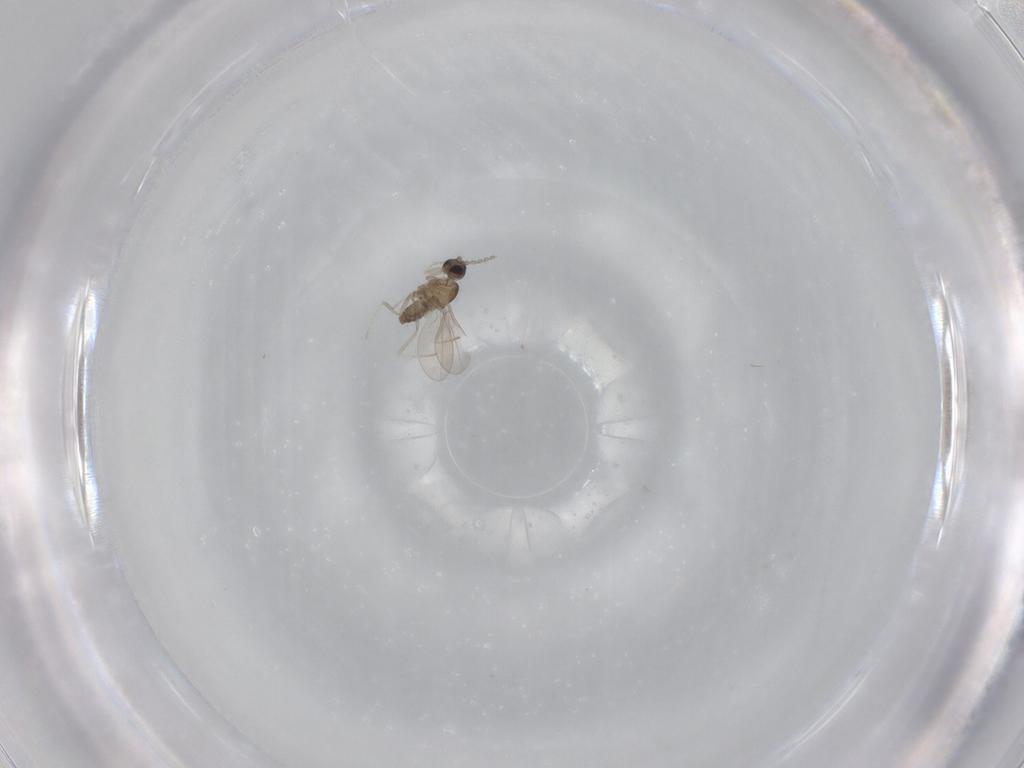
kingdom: Animalia
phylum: Arthropoda
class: Insecta
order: Diptera
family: Cecidomyiidae
